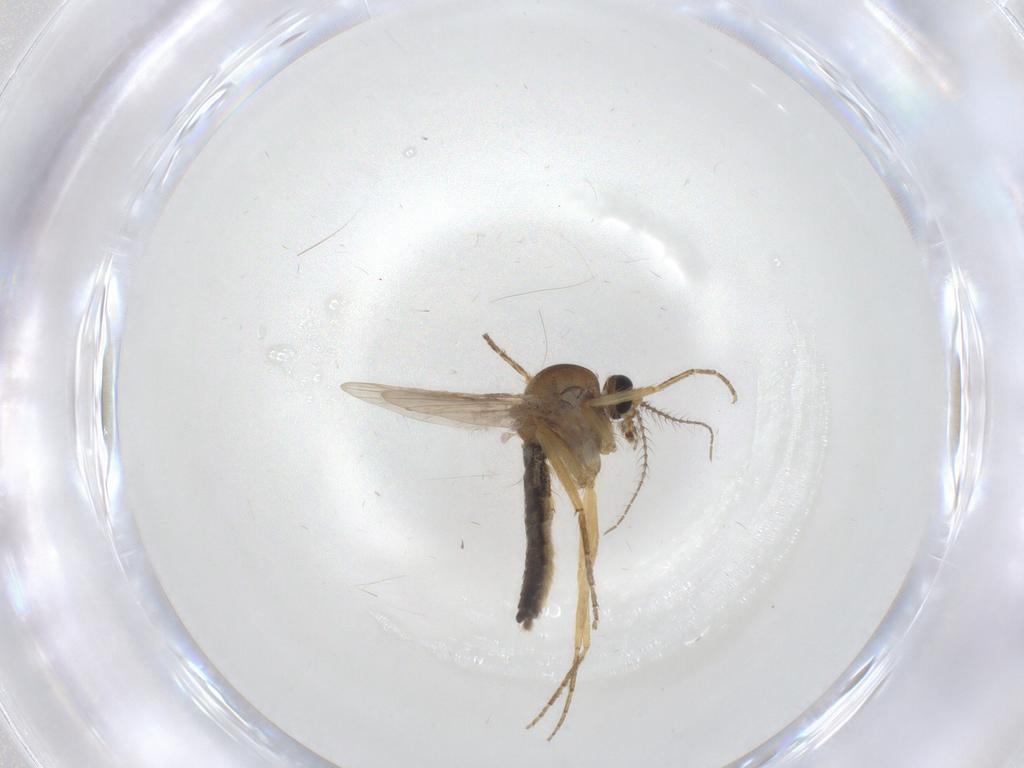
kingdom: Animalia
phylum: Arthropoda
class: Insecta
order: Diptera
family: Ceratopogonidae
